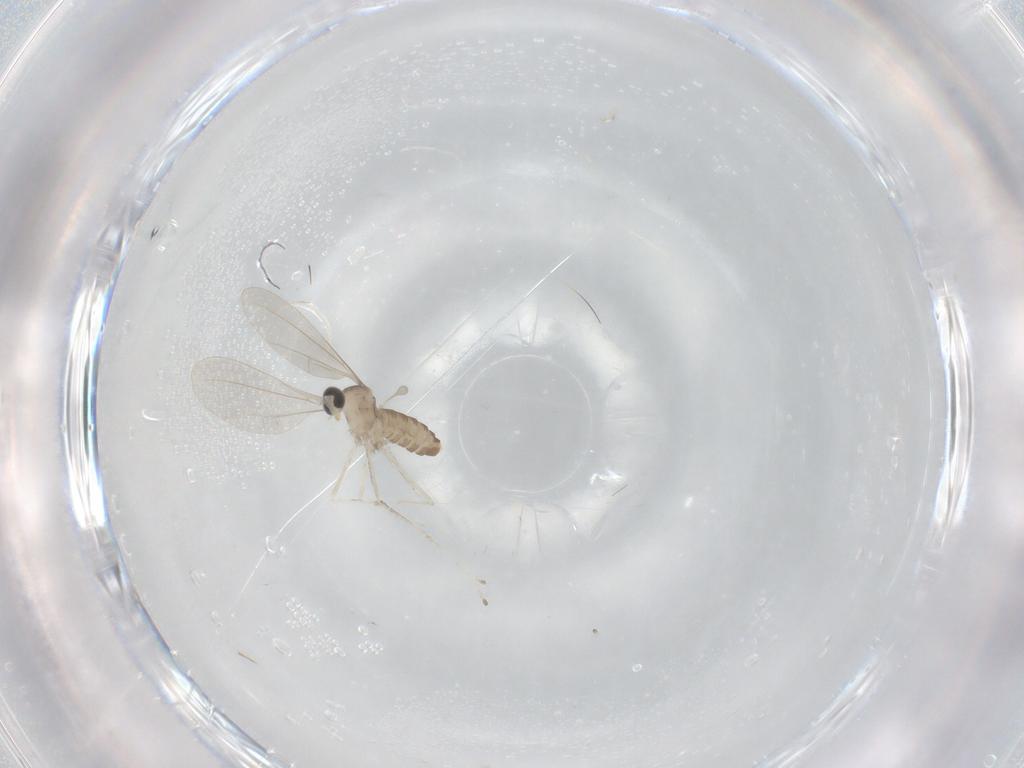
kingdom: Animalia
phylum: Arthropoda
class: Insecta
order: Diptera
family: Cecidomyiidae
